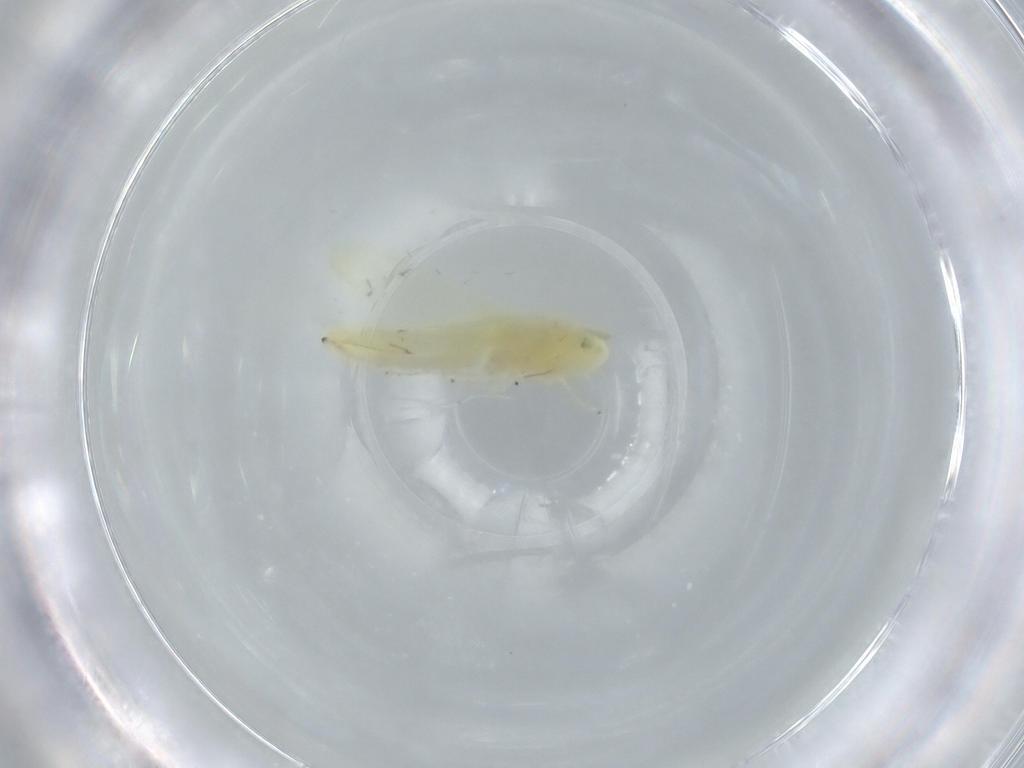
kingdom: Animalia
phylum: Arthropoda
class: Insecta
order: Hemiptera
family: Cicadellidae
